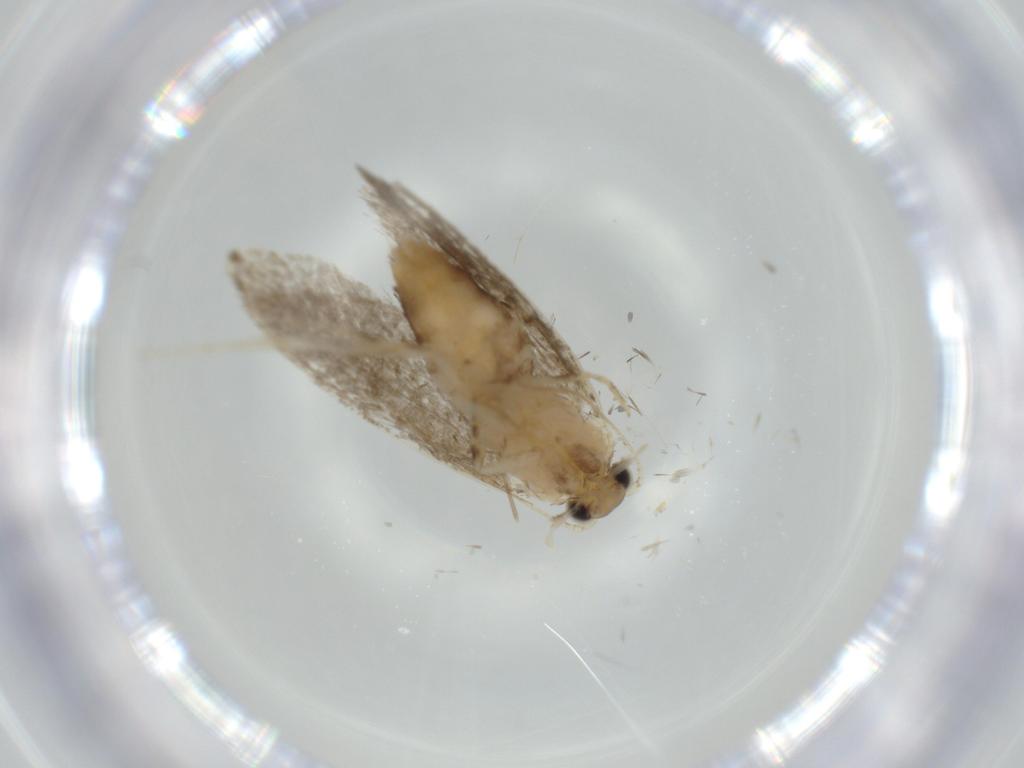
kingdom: Animalia
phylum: Arthropoda
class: Insecta
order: Lepidoptera
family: Tineidae
